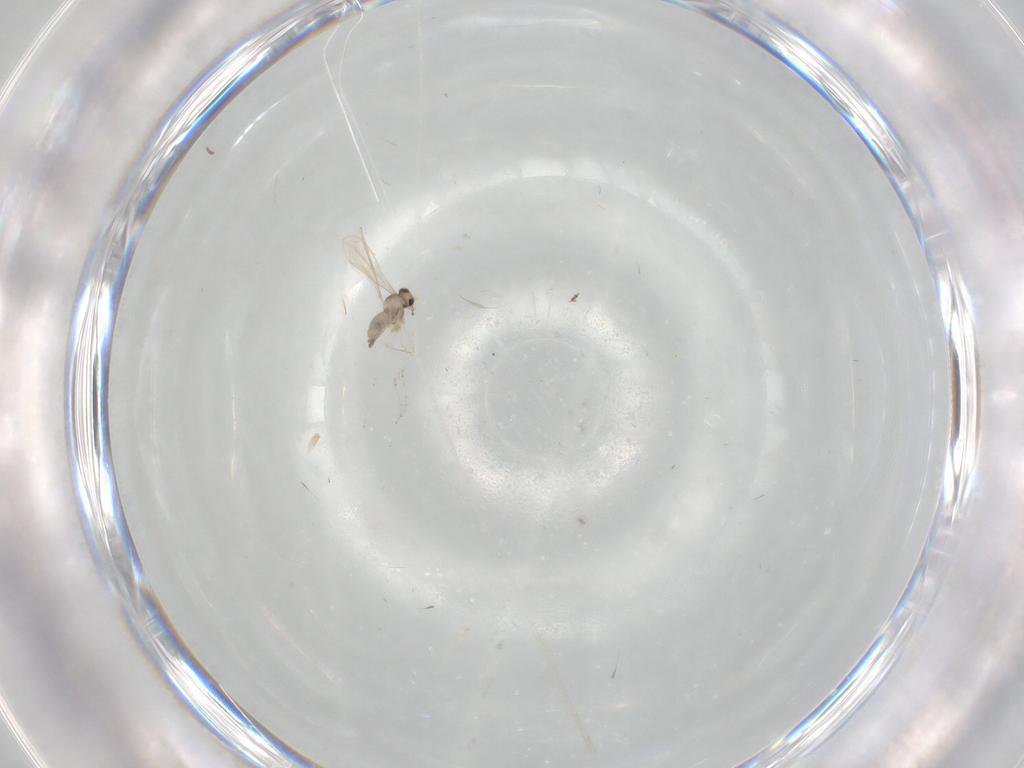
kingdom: Animalia
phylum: Arthropoda
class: Insecta
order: Diptera
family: Cecidomyiidae
